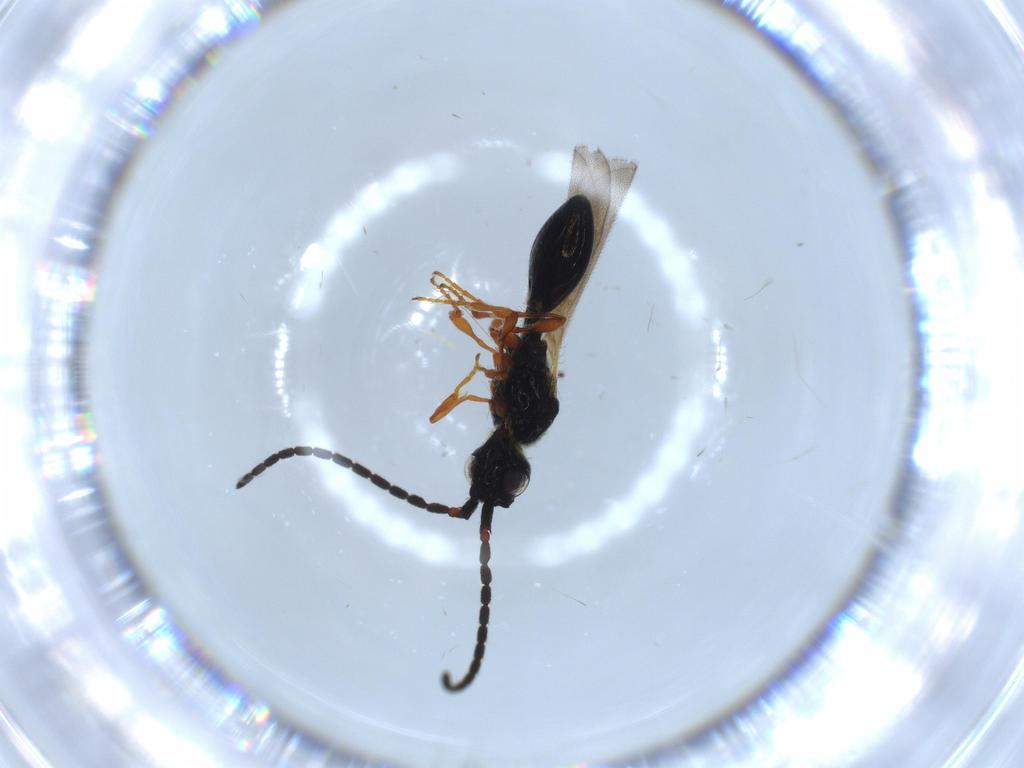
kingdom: Animalia
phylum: Arthropoda
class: Insecta
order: Hymenoptera
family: Diapriidae
